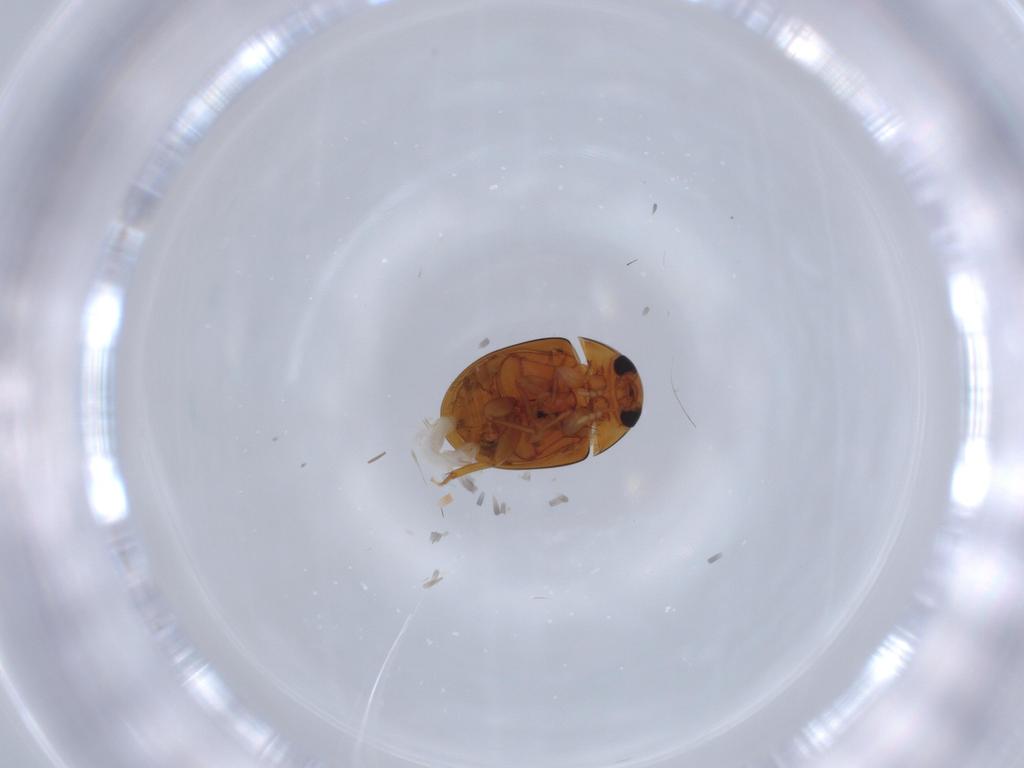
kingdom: Animalia
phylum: Arthropoda
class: Insecta
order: Coleoptera
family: Phalacridae
